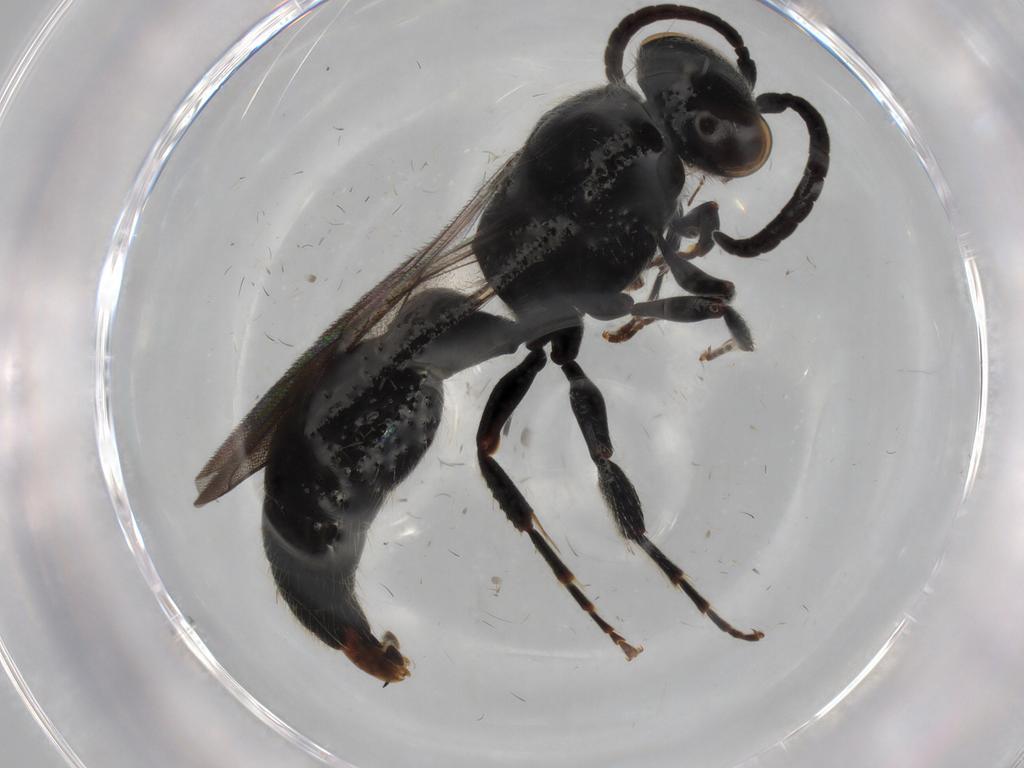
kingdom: Animalia
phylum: Arthropoda
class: Insecta
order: Hymenoptera
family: Tiphiidae
